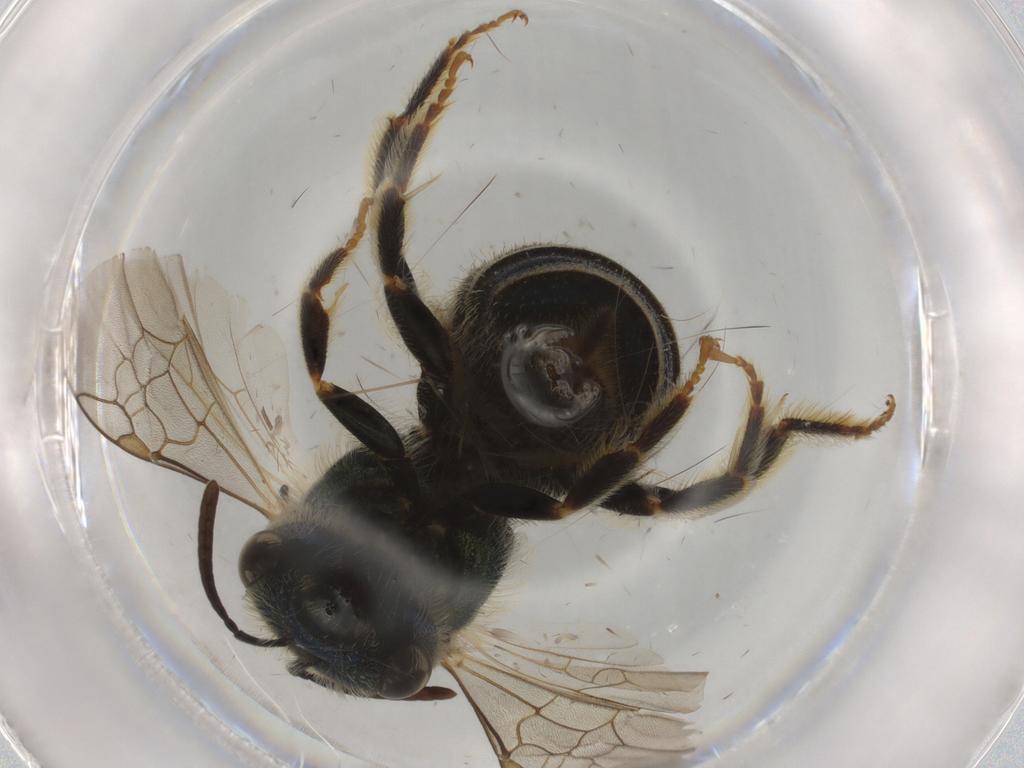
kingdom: Animalia
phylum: Arthropoda
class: Insecta
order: Hymenoptera
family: Halictidae
